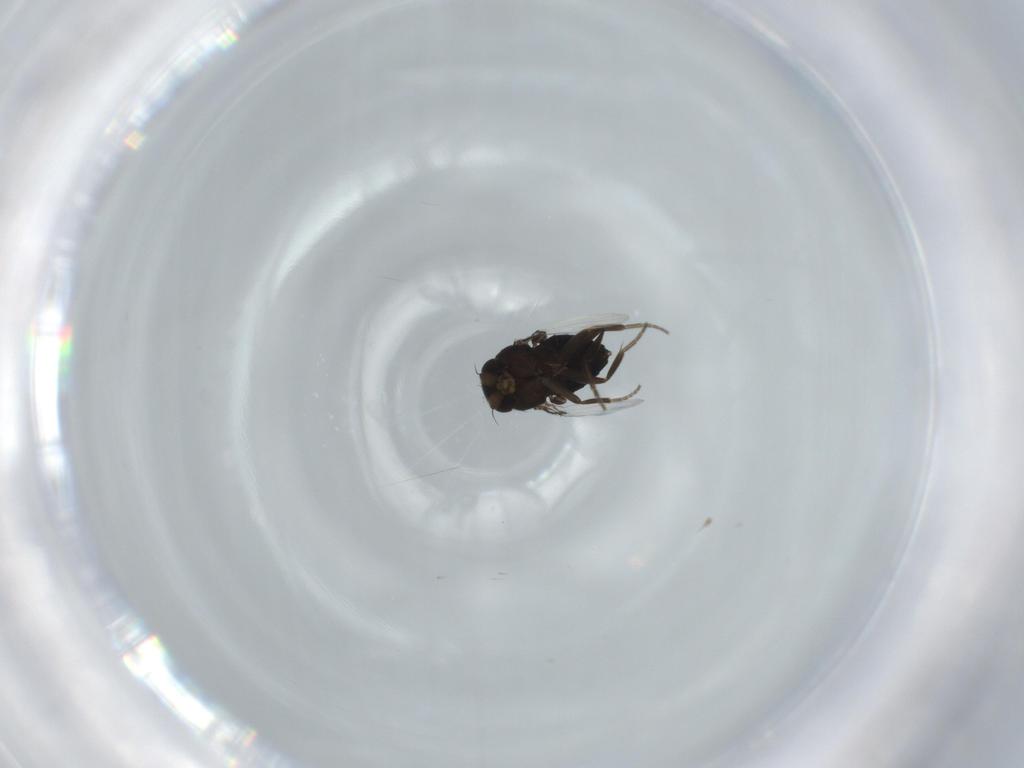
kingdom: Animalia
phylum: Arthropoda
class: Insecta
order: Diptera
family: Phoridae
